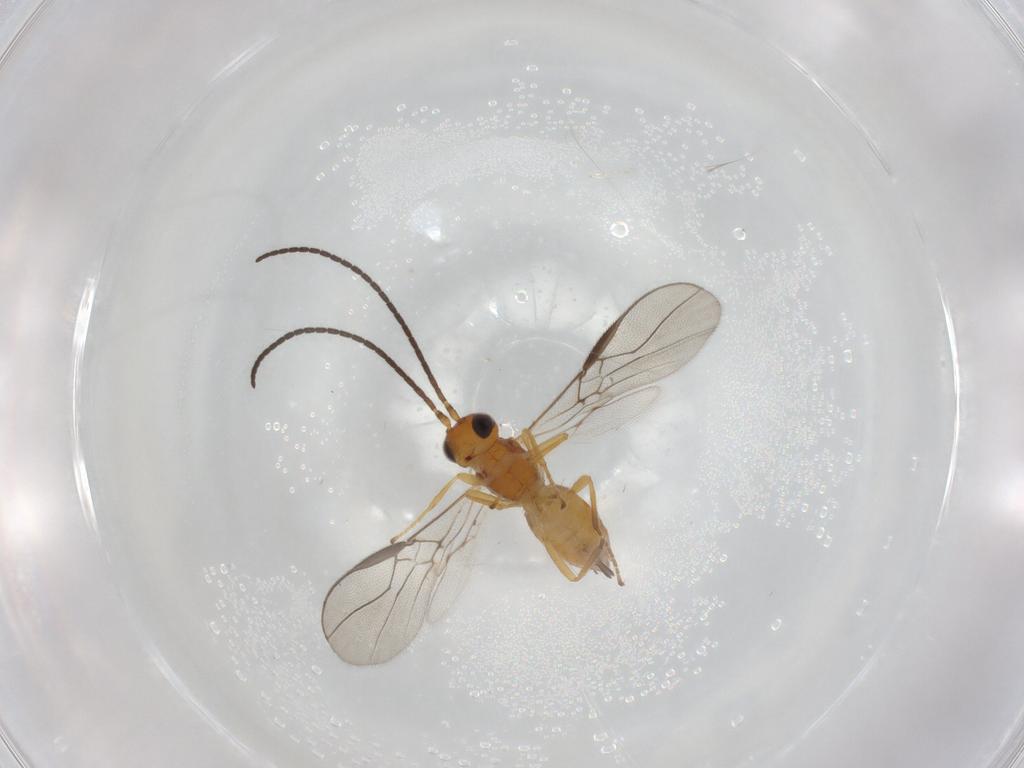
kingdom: Animalia
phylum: Arthropoda
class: Insecta
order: Hymenoptera
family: Braconidae
